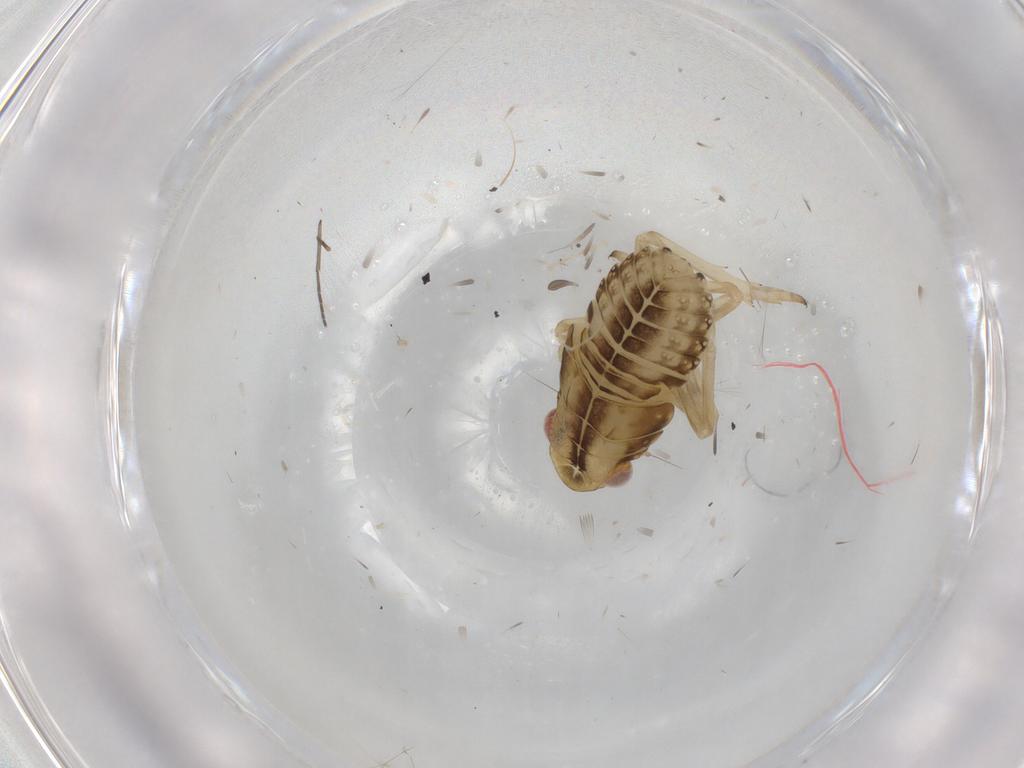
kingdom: Animalia
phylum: Arthropoda
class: Insecta
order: Hemiptera
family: Caliscelidae
